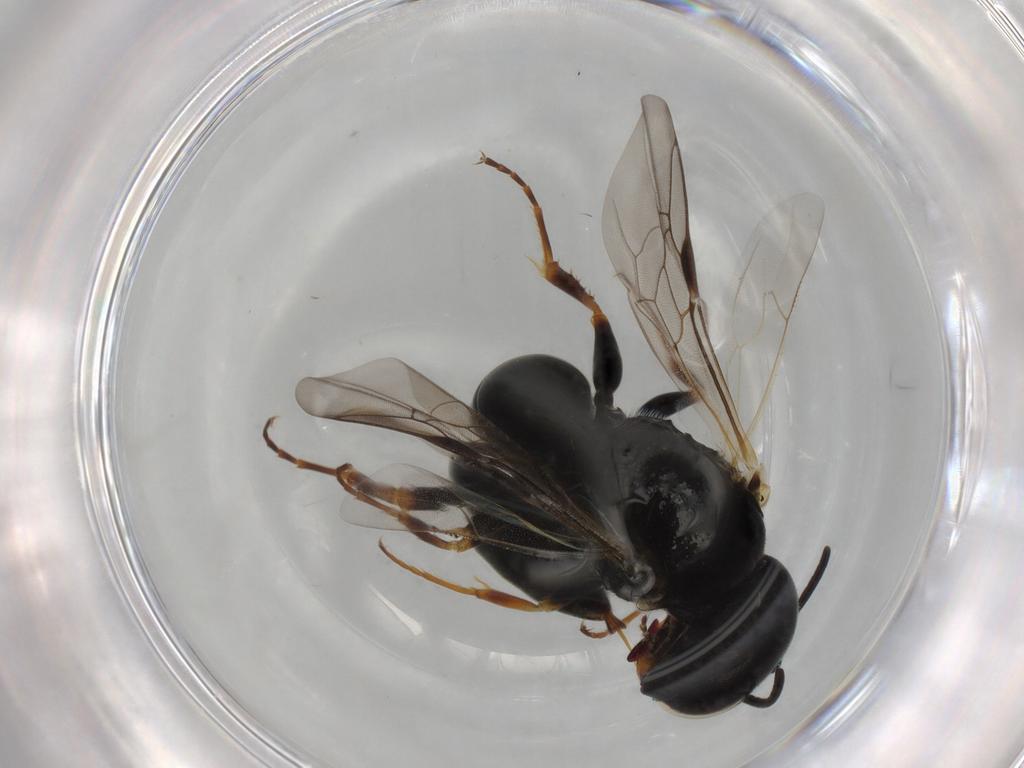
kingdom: Animalia
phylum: Arthropoda
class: Insecta
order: Hymenoptera
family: Crabronidae
